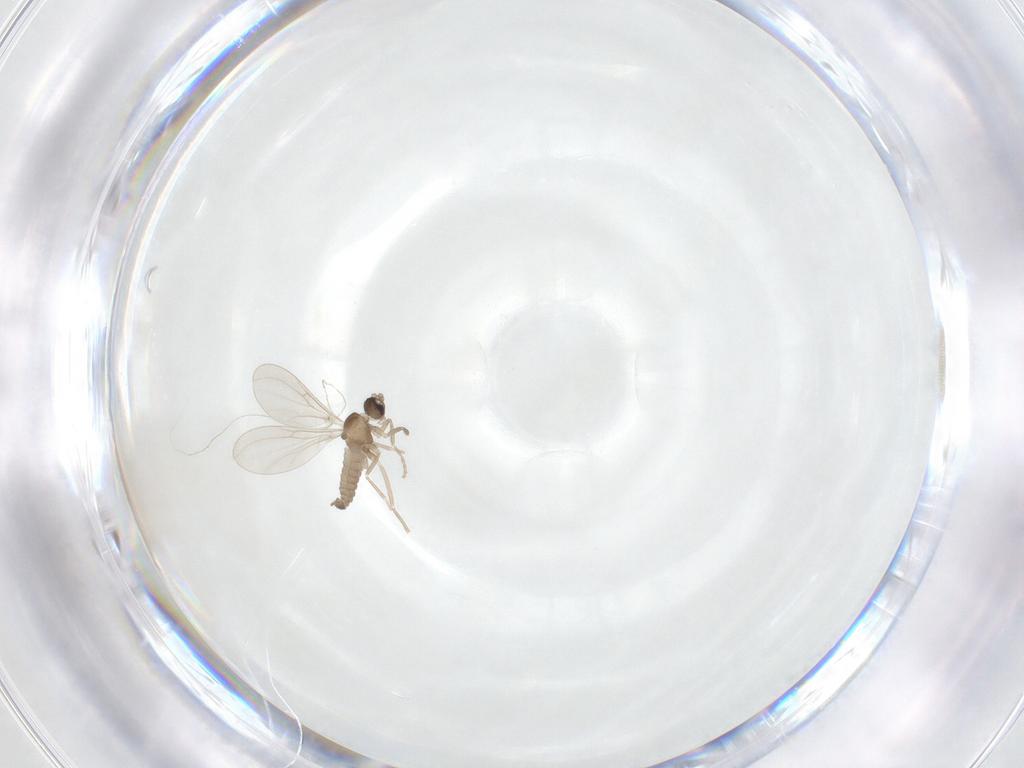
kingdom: Animalia
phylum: Arthropoda
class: Insecta
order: Diptera
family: Cecidomyiidae
